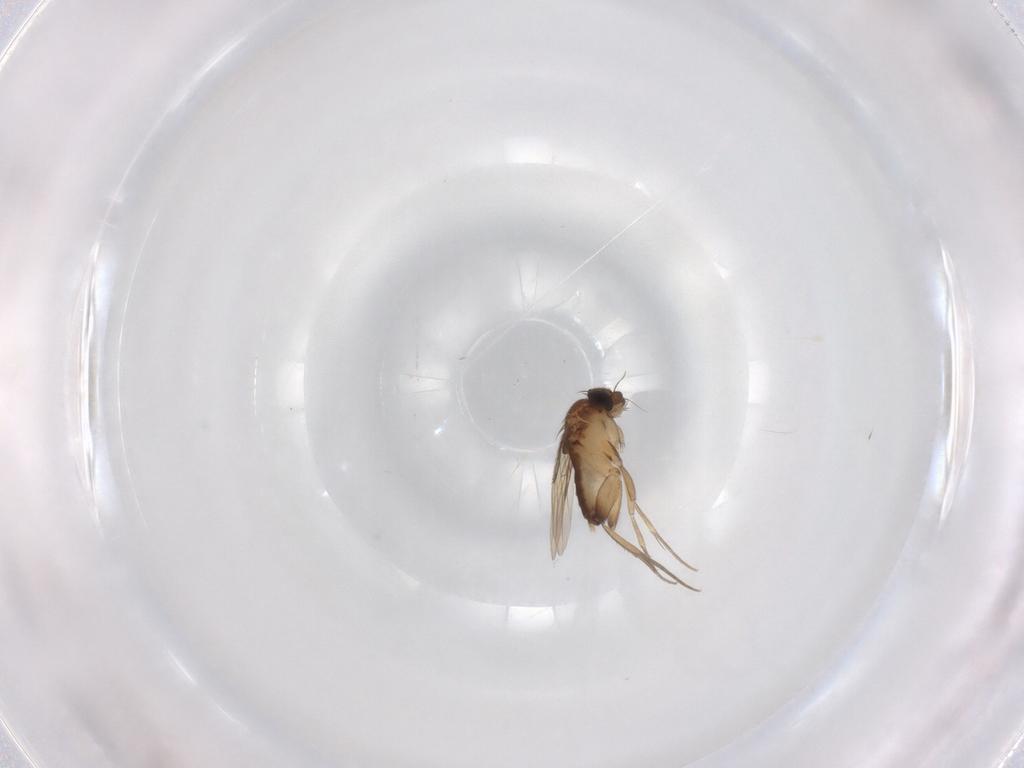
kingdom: Animalia
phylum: Arthropoda
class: Insecta
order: Diptera
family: Phoridae
